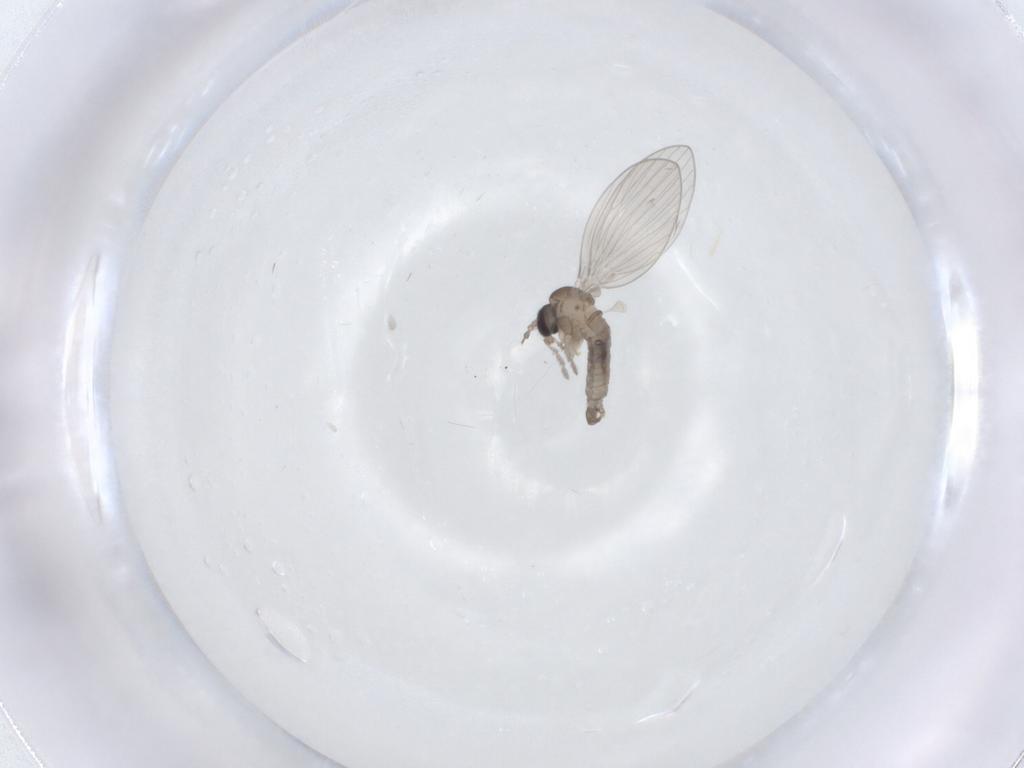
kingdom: Animalia
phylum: Arthropoda
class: Insecta
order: Diptera
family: Psychodidae
